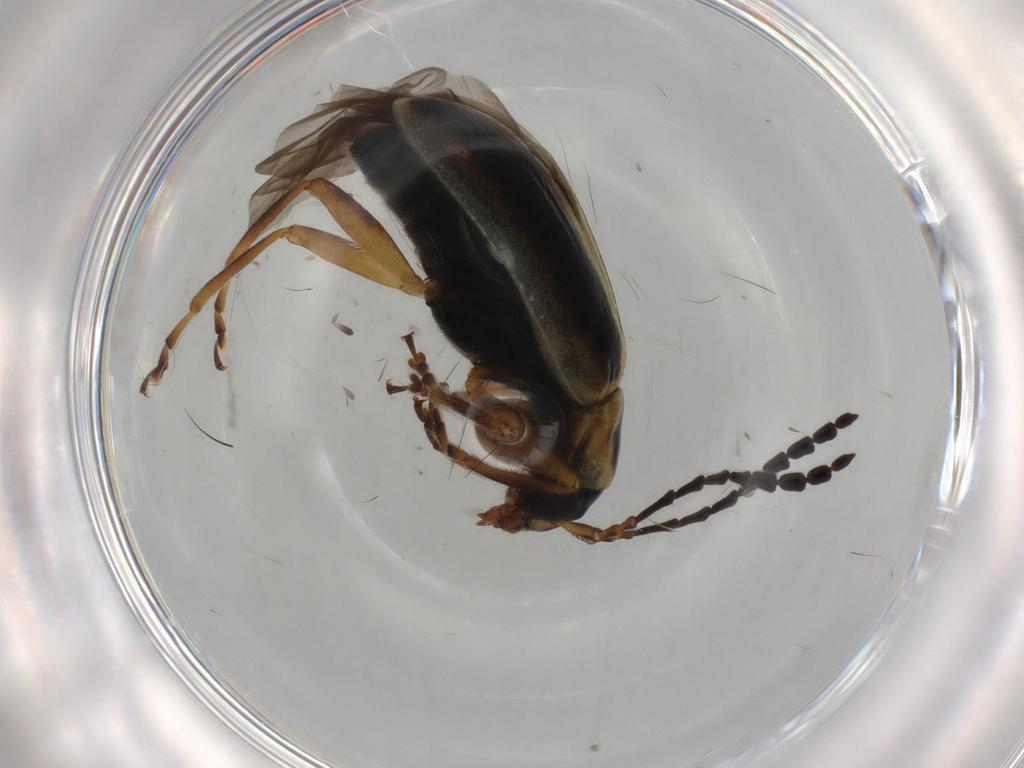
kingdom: Animalia
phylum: Arthropoda
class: Insecta
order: Coleoptera
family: Chrysomelidae
